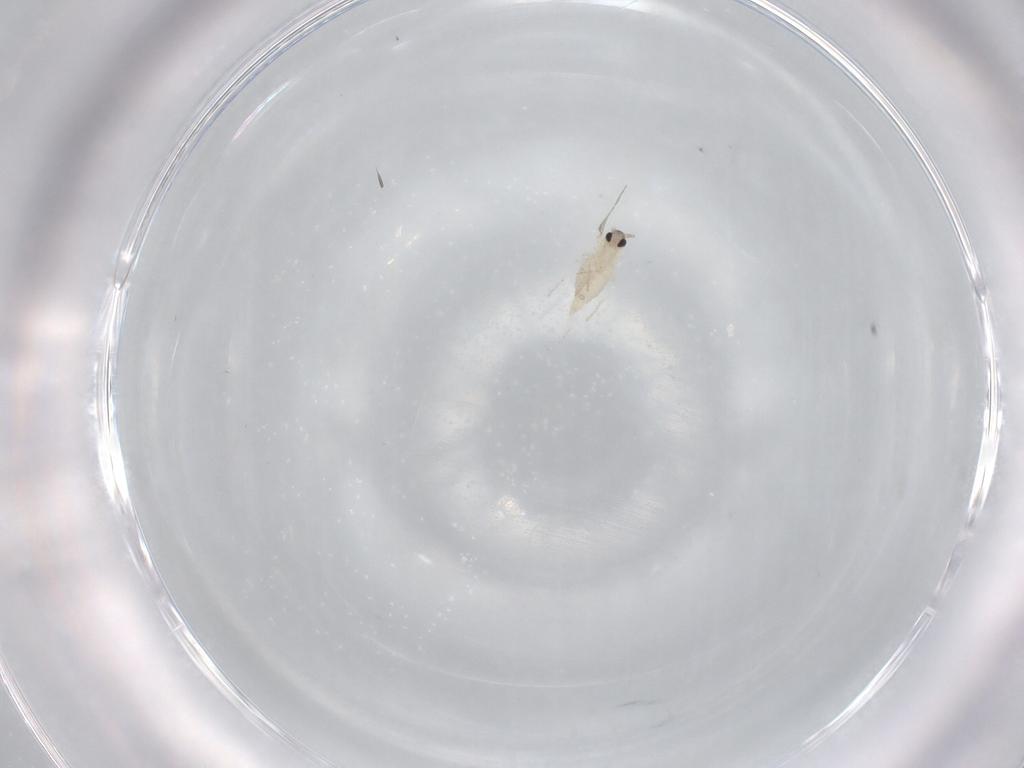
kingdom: Animalia
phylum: Arthropoda
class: Insecta
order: Diptera
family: Cecidomyiidae
